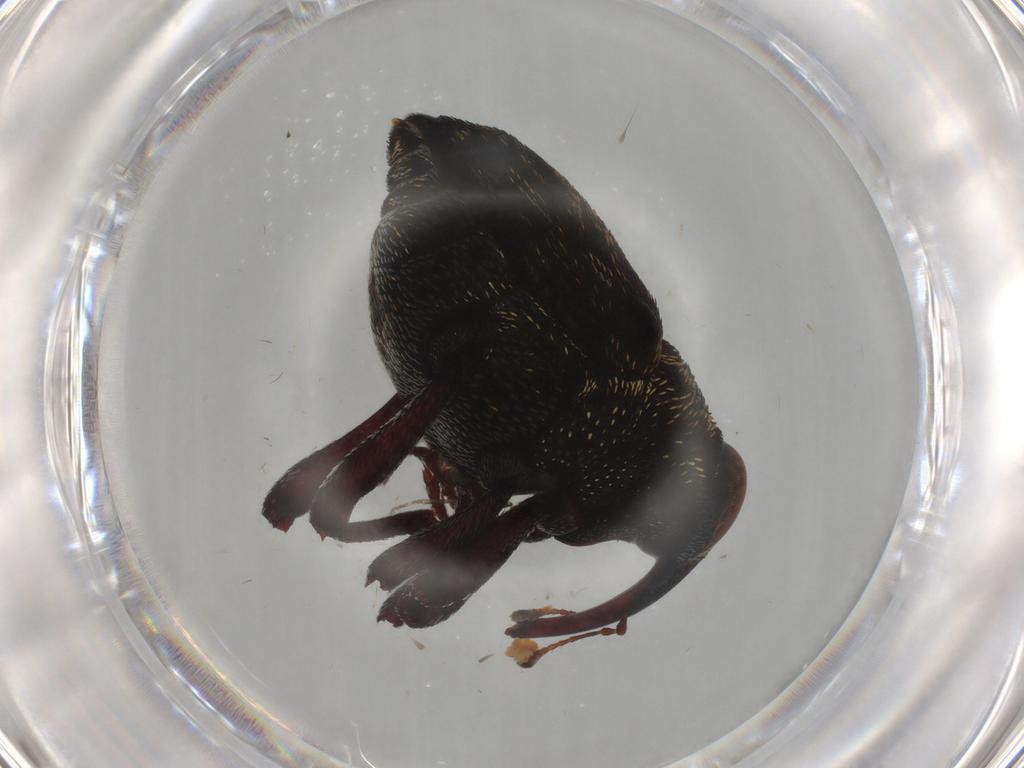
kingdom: Animalia
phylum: Arthropoda
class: Insecta
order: Coleoptera
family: Curculionidae
